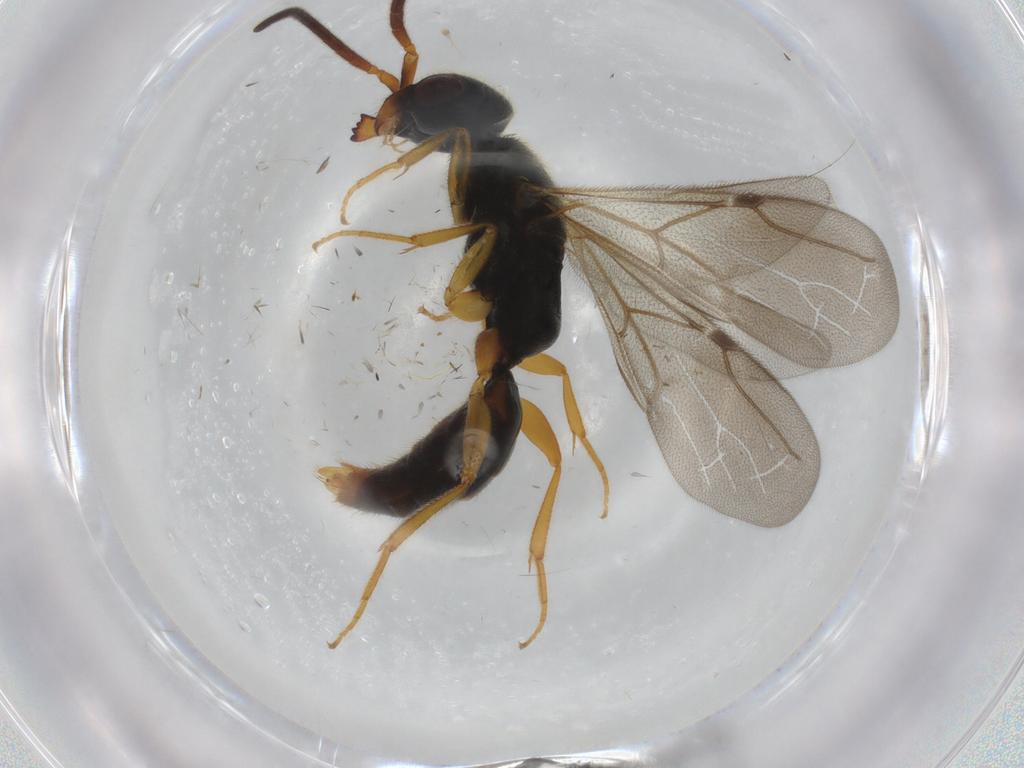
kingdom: Animalia
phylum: Arthropoda
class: Insecta
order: Hymenoptera
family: Bethylidae
